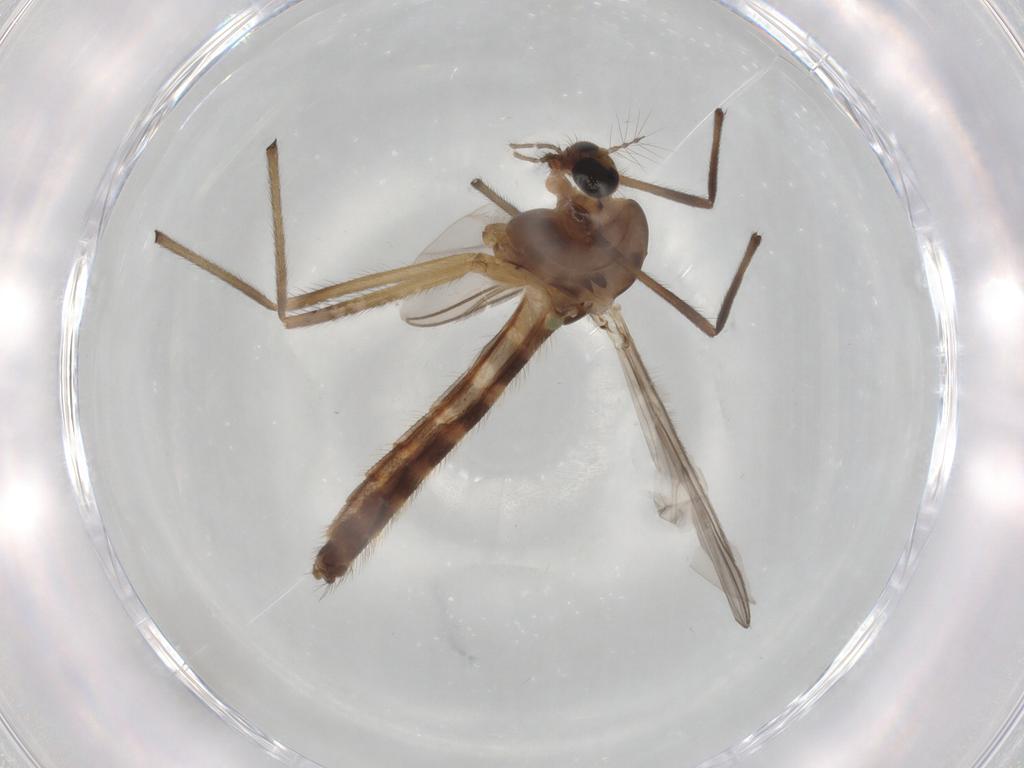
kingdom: Animalia
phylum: Arthropoda
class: Insecta
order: Diptera
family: Chironomidae
